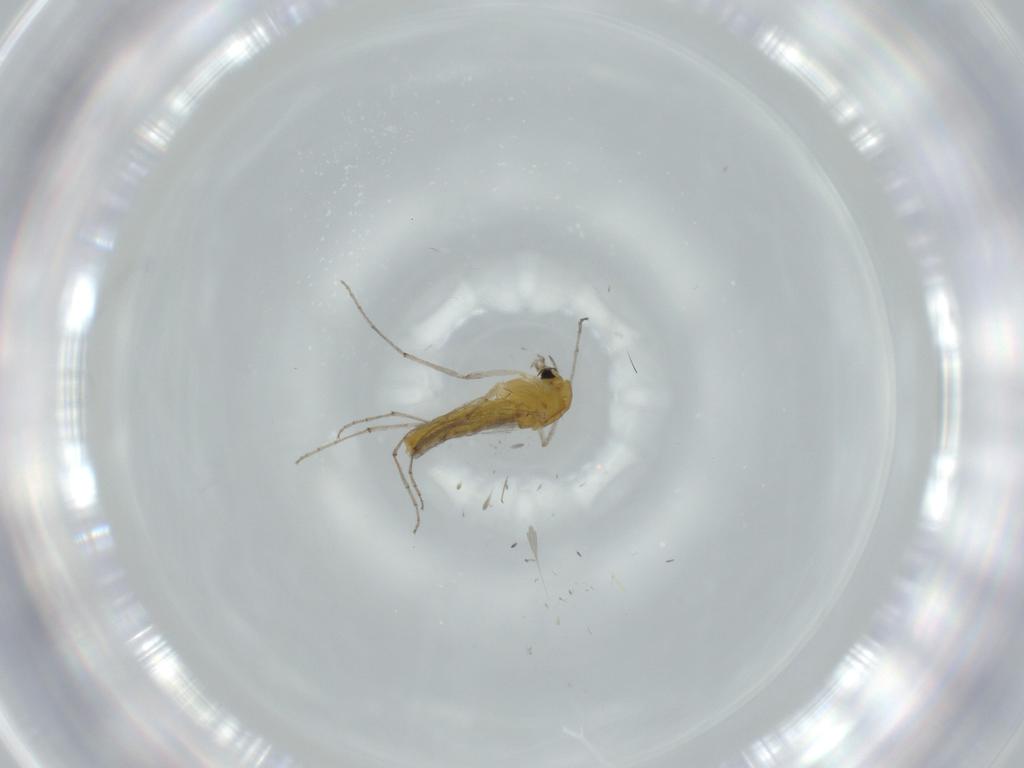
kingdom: Animalia
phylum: Arthropoda
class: Insecta
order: Diptera
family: Chironomidae
